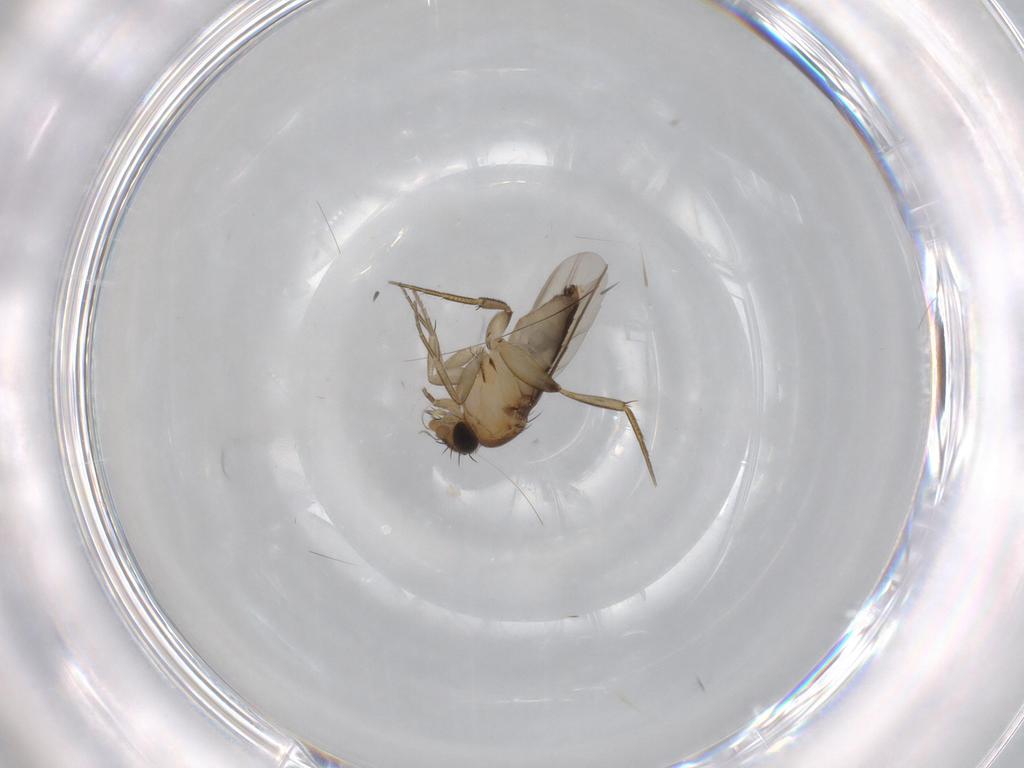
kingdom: Animalia
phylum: Arthropoda
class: Insecta
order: Diptera
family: Phoridae
